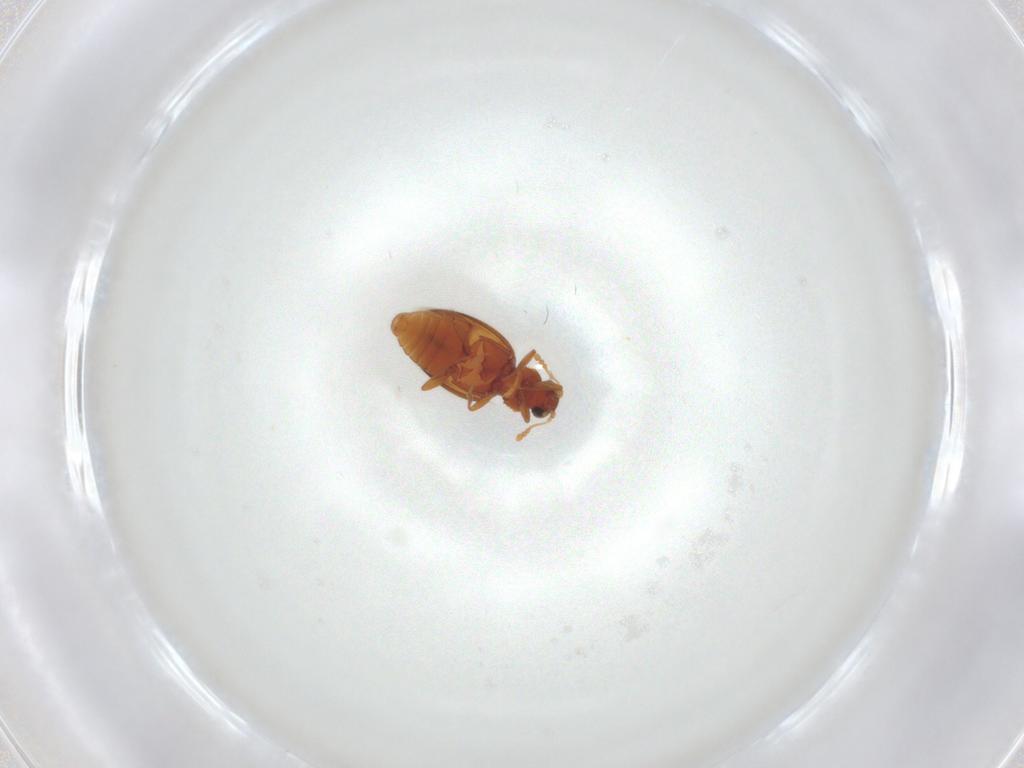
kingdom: Animalia
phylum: Arthropoda
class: Insecta
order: Coleoptera
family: Latridiidae
